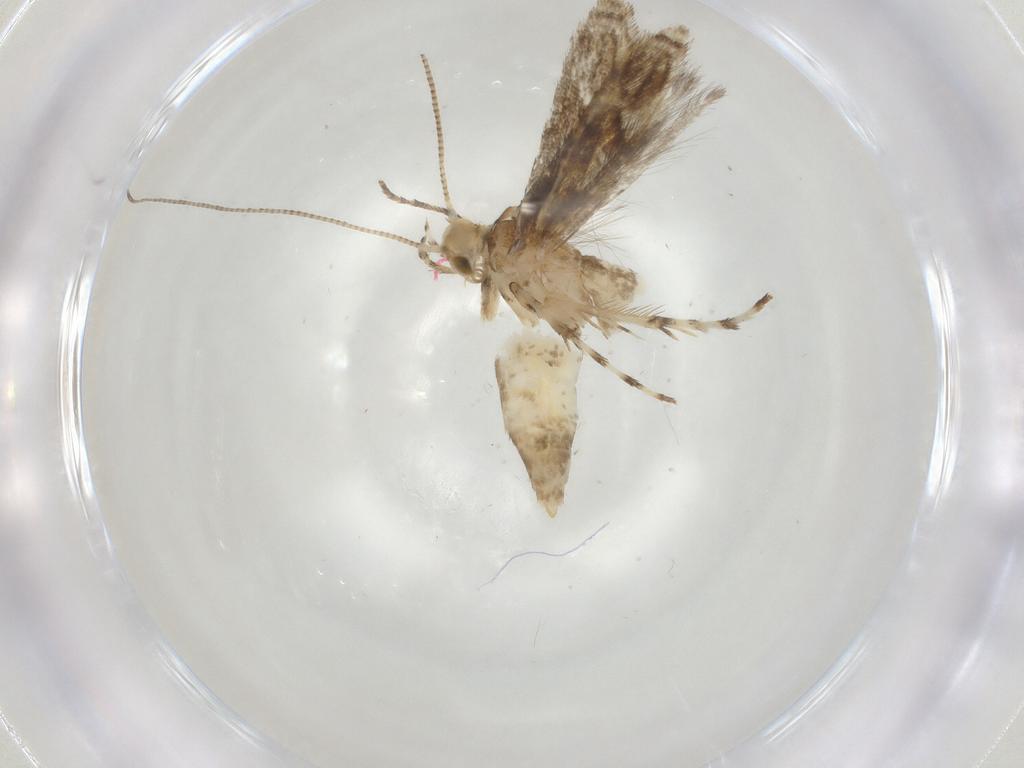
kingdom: Animalia
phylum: Arthropoda
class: Insecta
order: Lepidoptera
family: Gracillariidae
